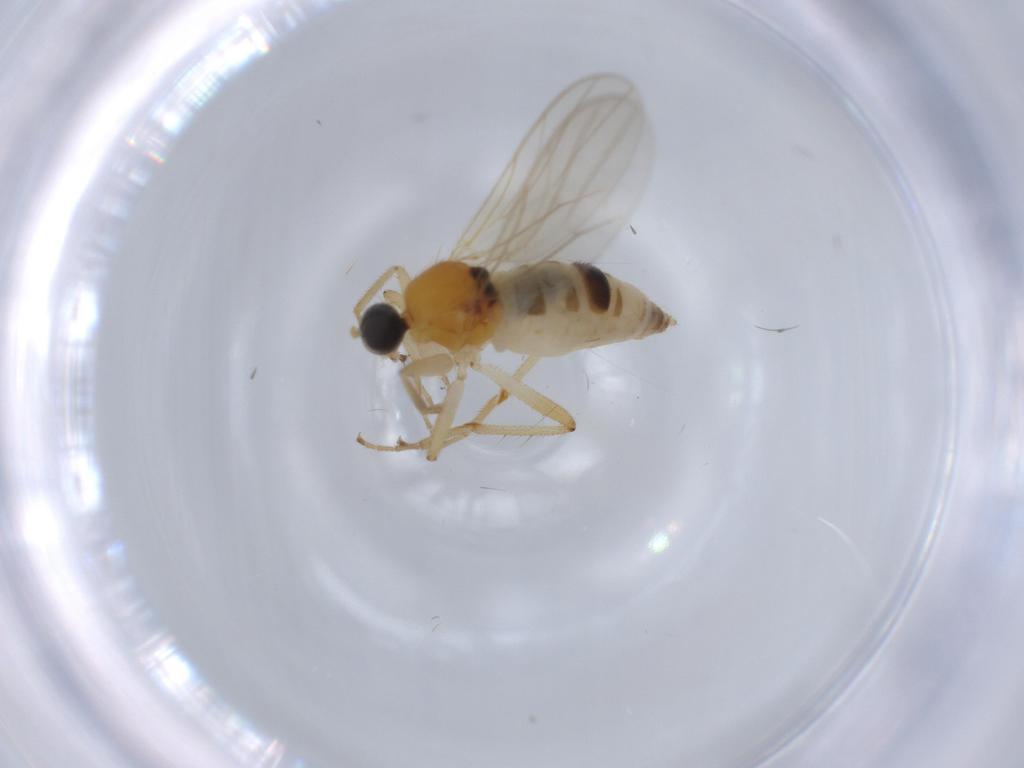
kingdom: Animalia
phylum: Arthropoda
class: Insecta
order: Diptera
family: Hybotidae
